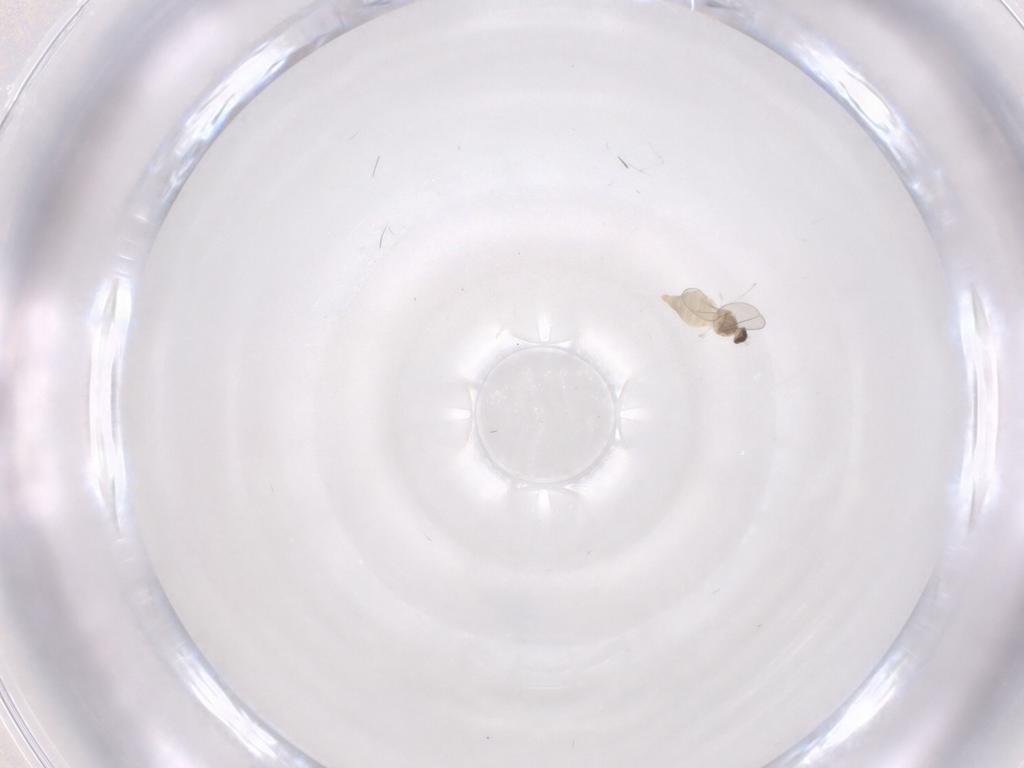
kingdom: Animalia
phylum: Arthropoda
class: Insecta
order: Diptera
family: Cecidomyiidae
